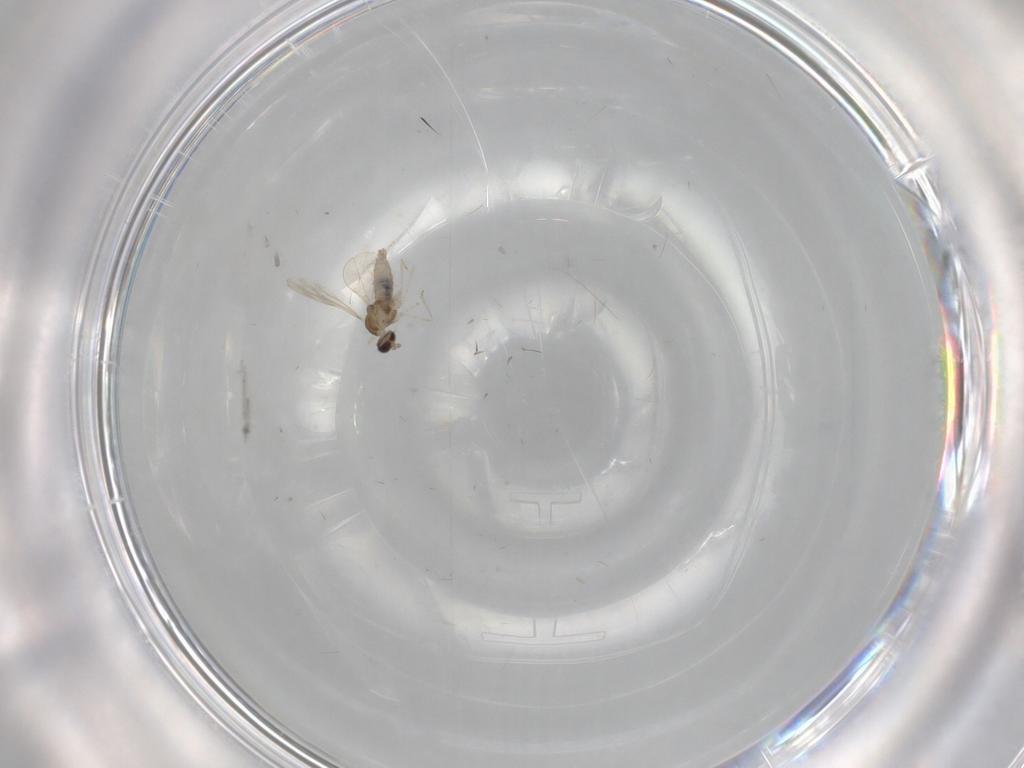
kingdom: Animalia
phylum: Arthropoda
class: Insecta
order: Diptera
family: Cecidomyiidae
